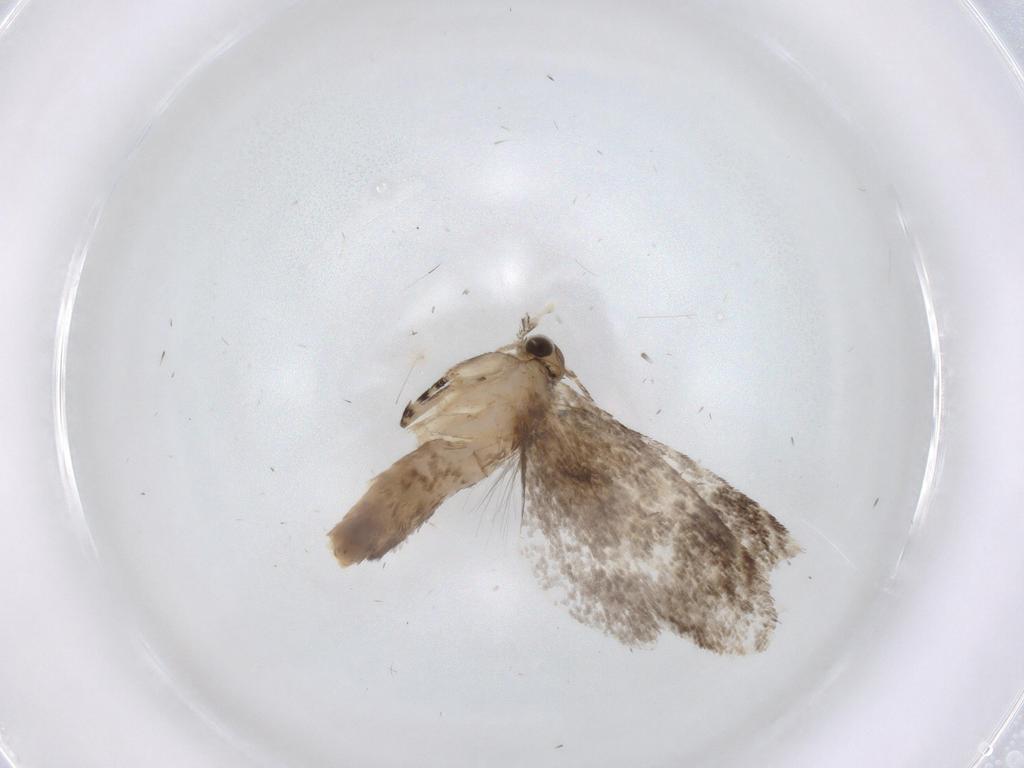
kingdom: Animalia
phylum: Arthropoda
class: Insecta
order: Lepidoptera
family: Tineidae
